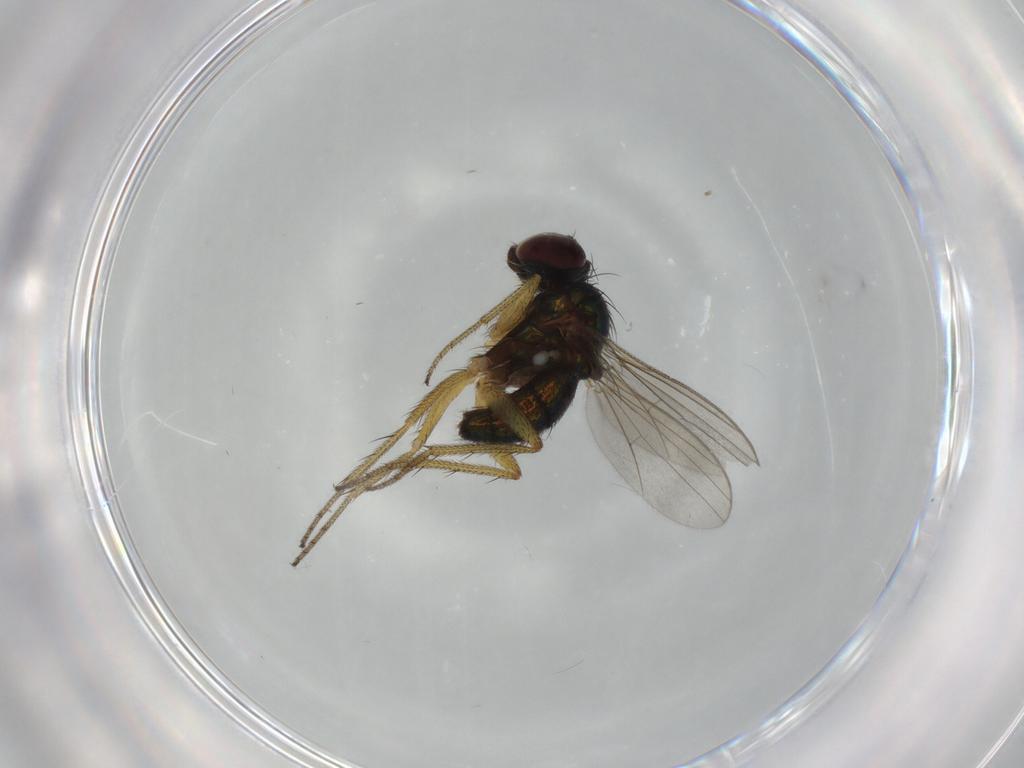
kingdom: Animalia
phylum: Arthropoda
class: Insecta
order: Diptera
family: Dolichopodidae
